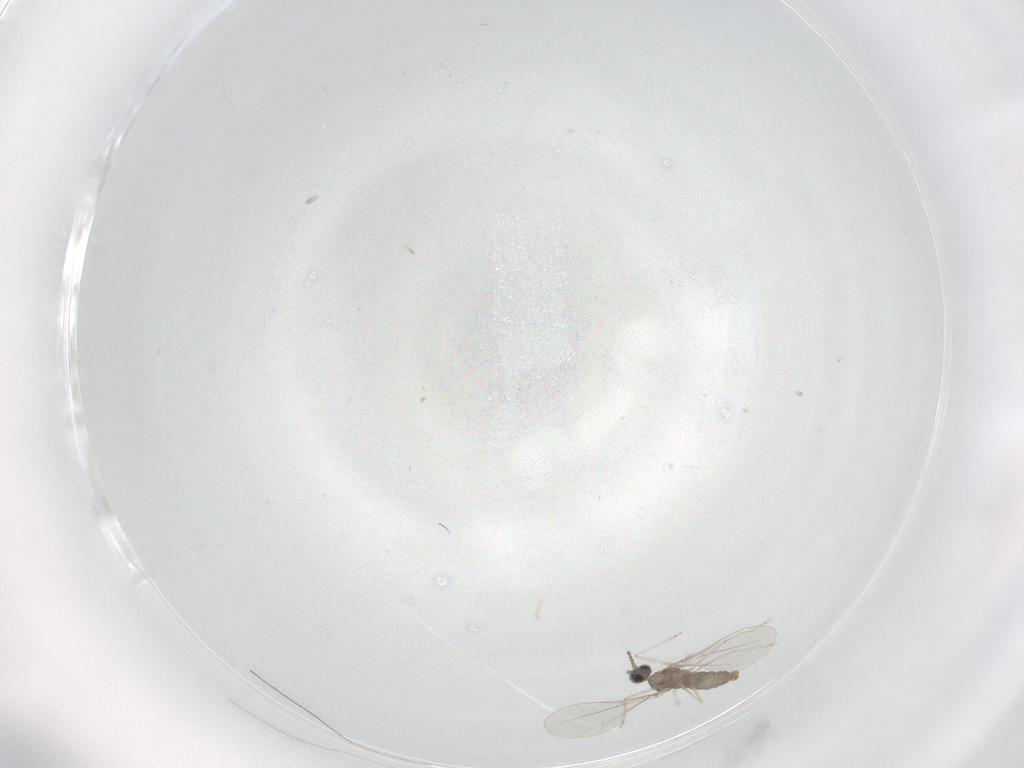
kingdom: Animalia
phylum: Arthropoda
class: Insecta
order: Diptera
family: Cecidomyiidae
